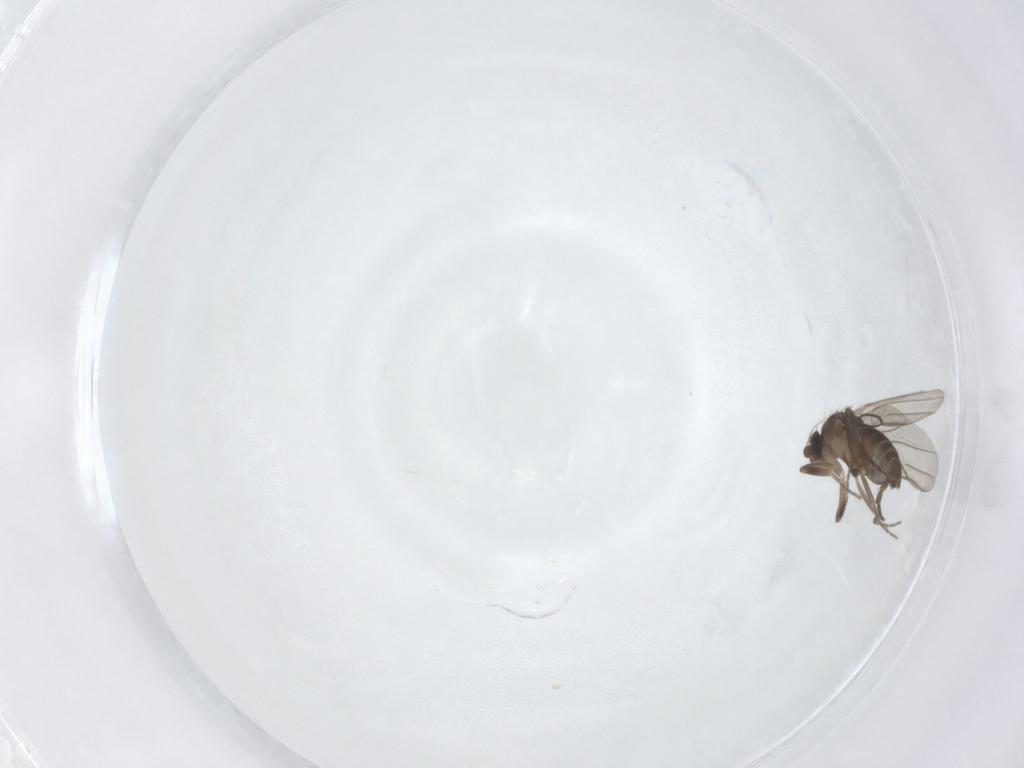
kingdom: Animalia
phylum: Arthropoda
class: Insecta
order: Diptera
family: Phoridae
